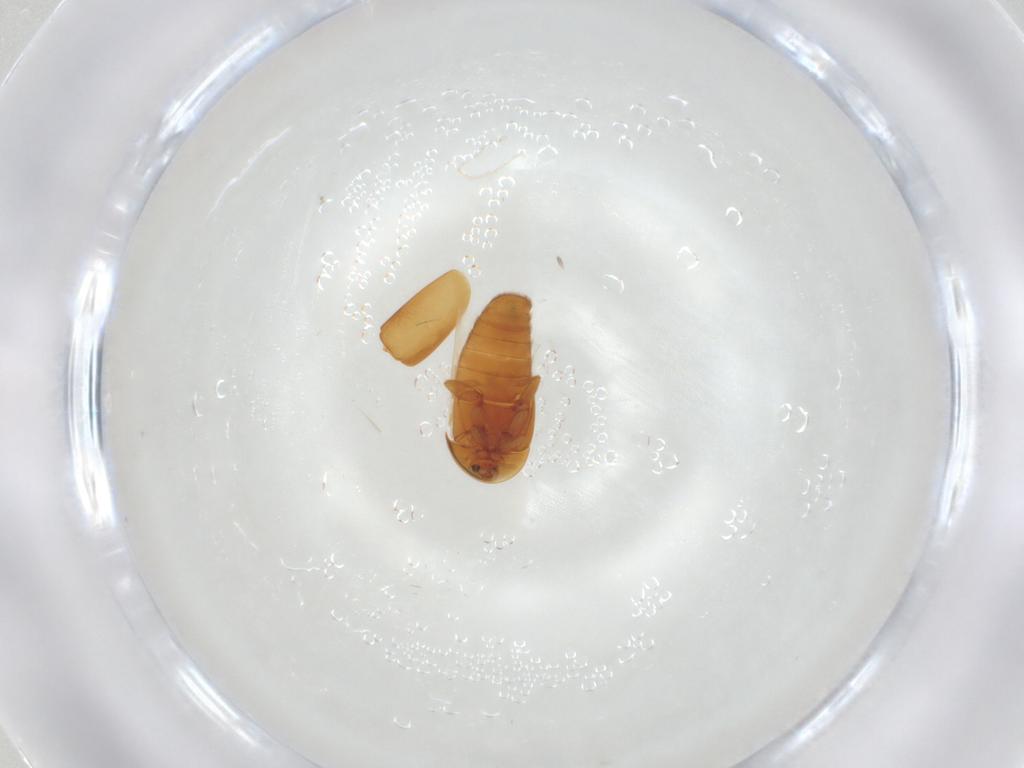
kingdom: Animalia
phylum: Arthropoda
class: Insecta
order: Coleoptera
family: Corylophidae
